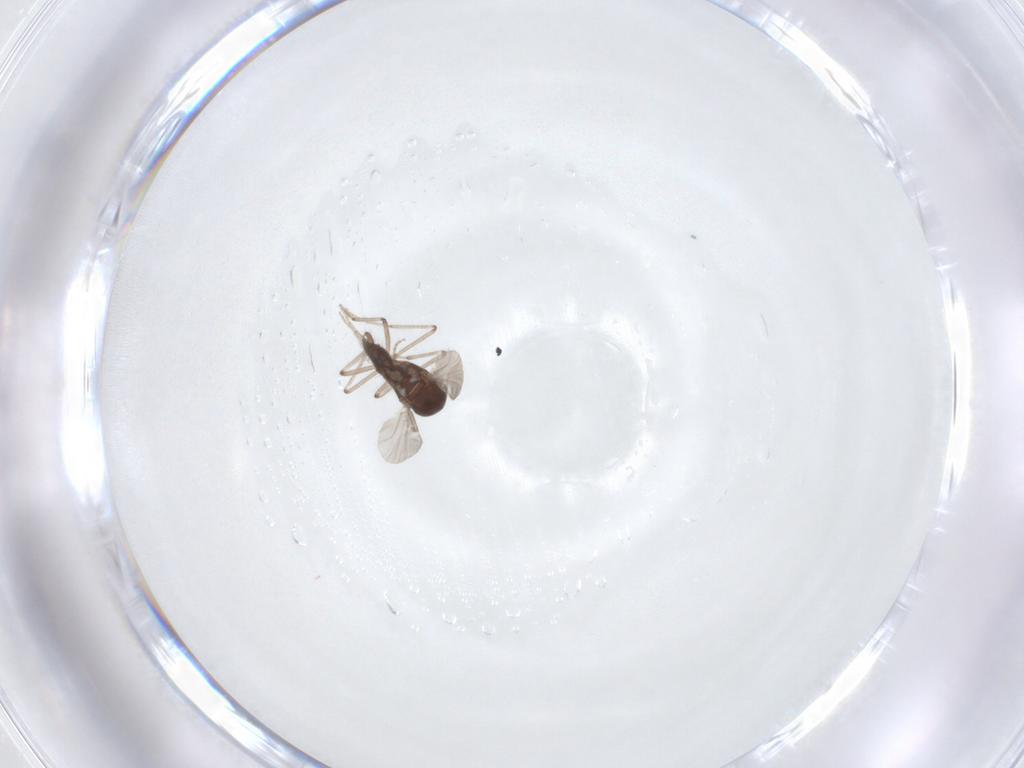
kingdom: Animalia
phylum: Arthropoda
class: Insecta
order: Diptera
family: Ceratopogonidae
